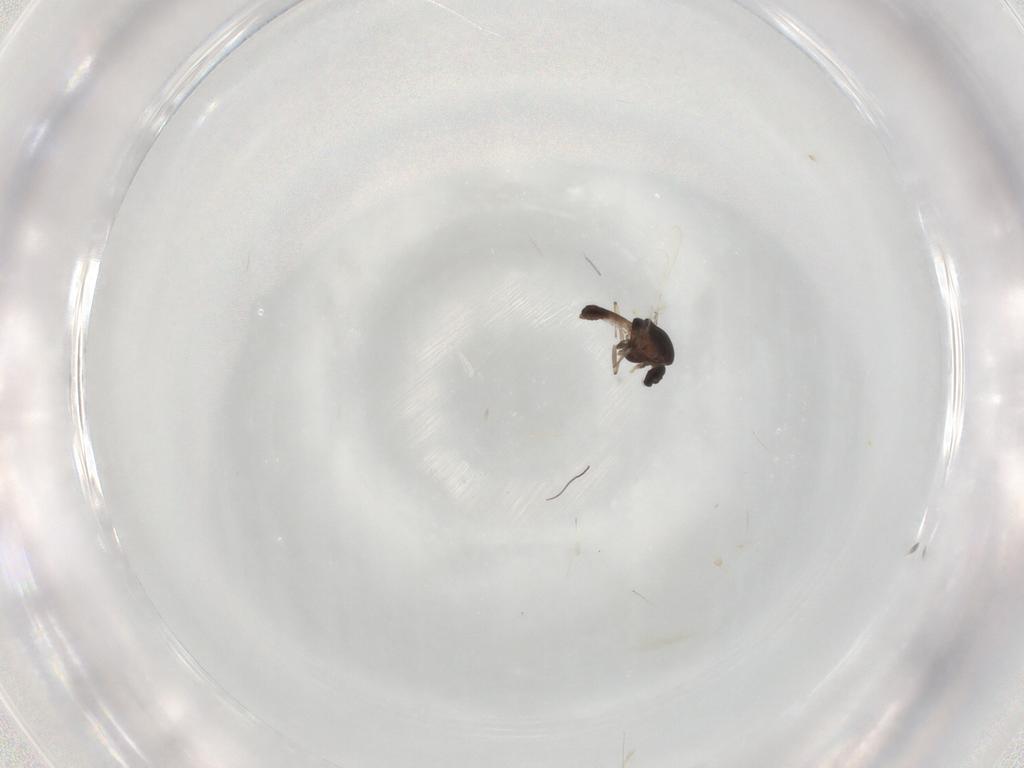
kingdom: Animalia
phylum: Arthropoda
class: Insecta
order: Diptera
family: Chironomidae
